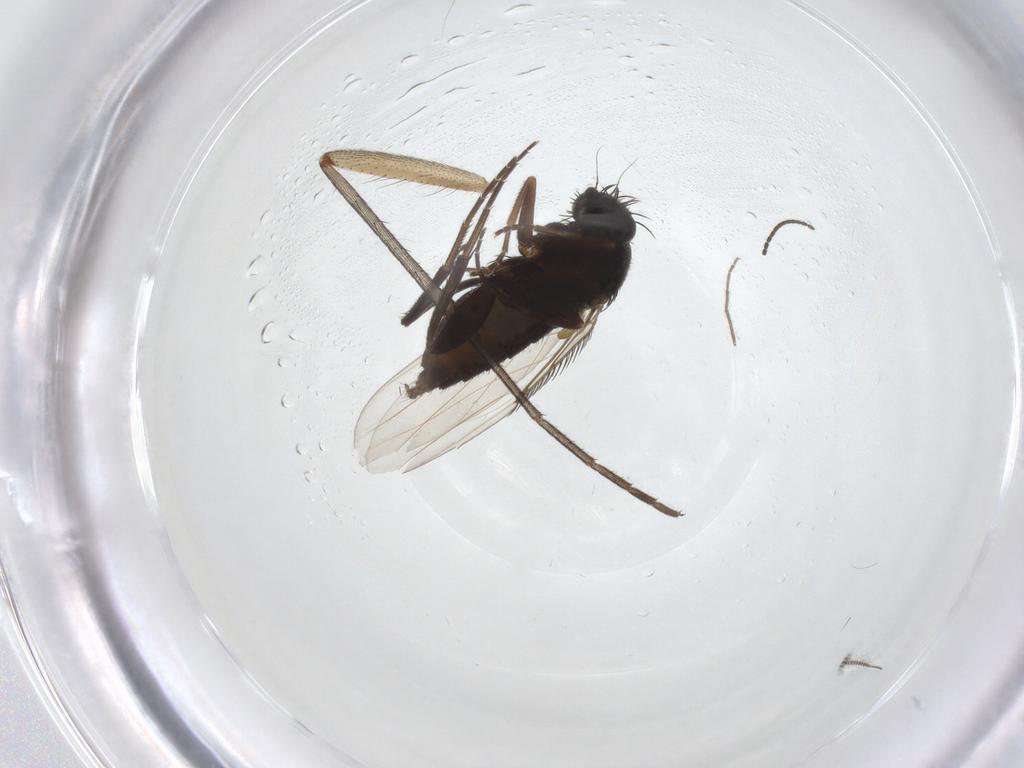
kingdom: Animalia
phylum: Arthropoda
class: Insecta
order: Diptera
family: Phoridae
